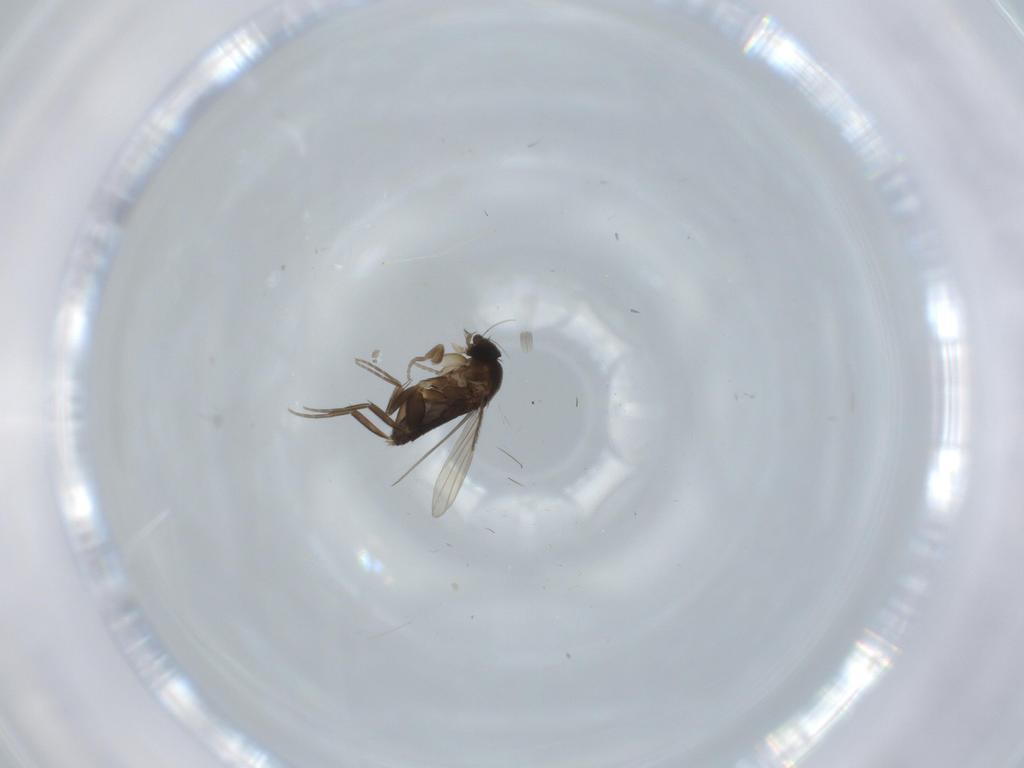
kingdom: Animalia
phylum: Arthropoda
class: Insecta
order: Diptera
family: Phoridae
